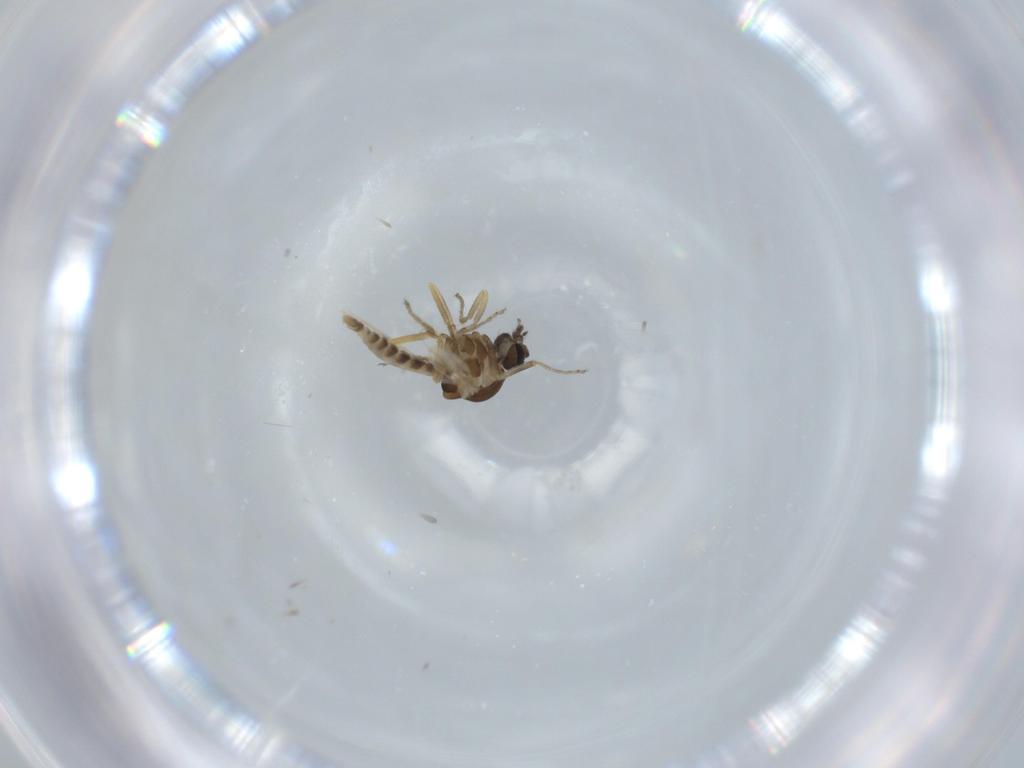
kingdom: Animalia
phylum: Arthropoda
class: Insecta
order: Diptera
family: Ceratopogonidae
